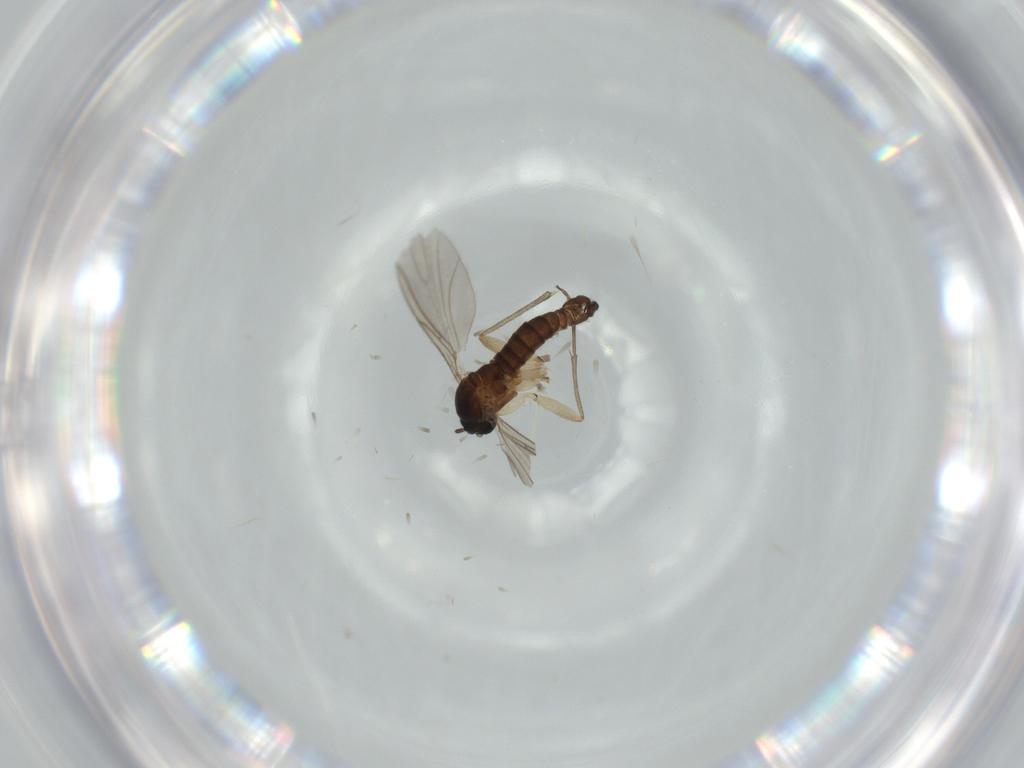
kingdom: Animalia
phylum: Arthropoda
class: Insecta
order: Diptera
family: Sciaridae
